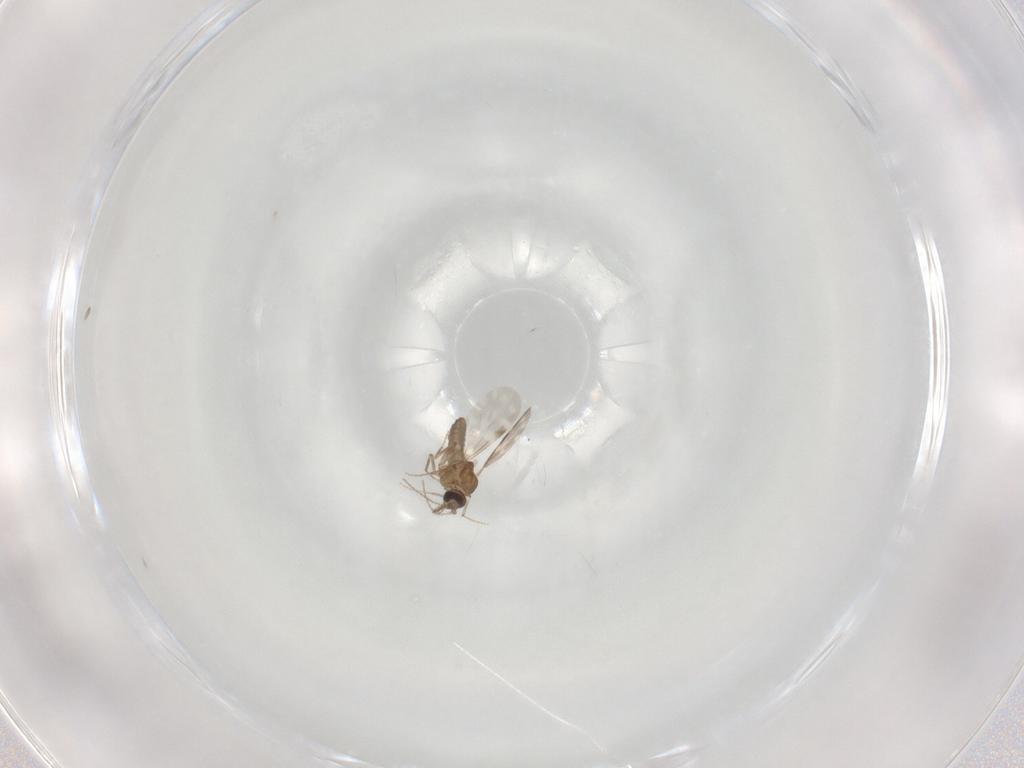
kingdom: Animalia
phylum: Arthropoda
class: Insecta
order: Diptera
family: Ceratopogonidae
